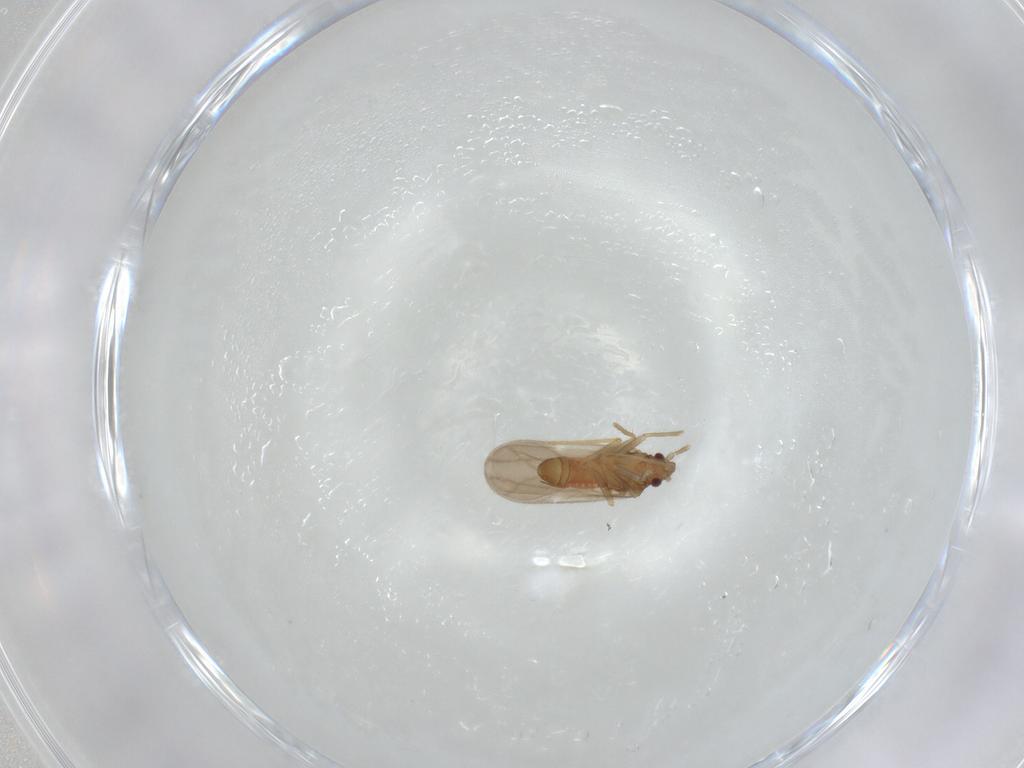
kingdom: Animalia
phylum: Arthropoda
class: Insecta
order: Hemiptera
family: Ceratocombidae
